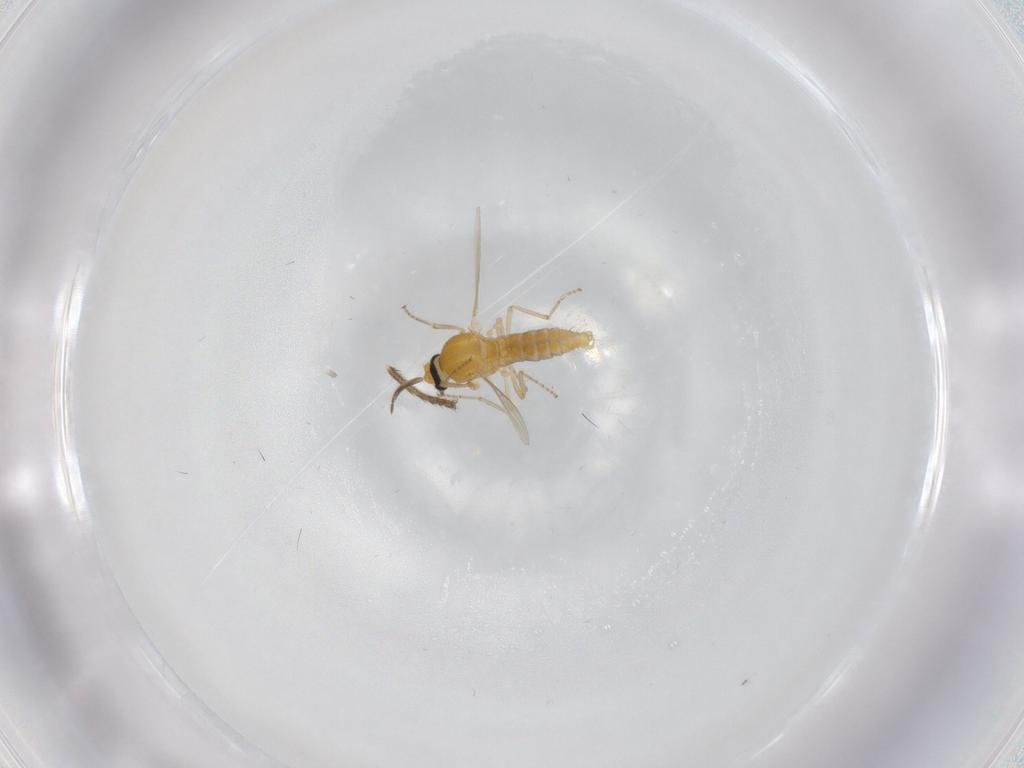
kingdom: Animalia
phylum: Arthropoda
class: Insecta
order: Diptera
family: Ceratopogonidae
